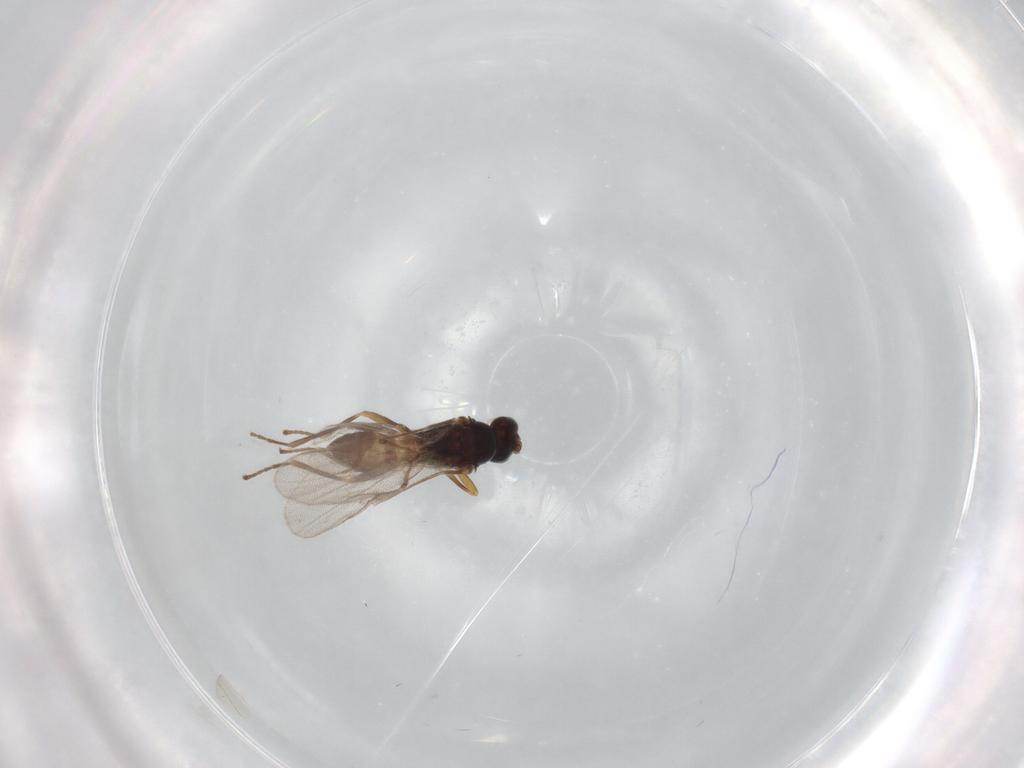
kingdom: Animalia
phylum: Arthropoda
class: Insecta
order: Hymenoptera
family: Braconidae
